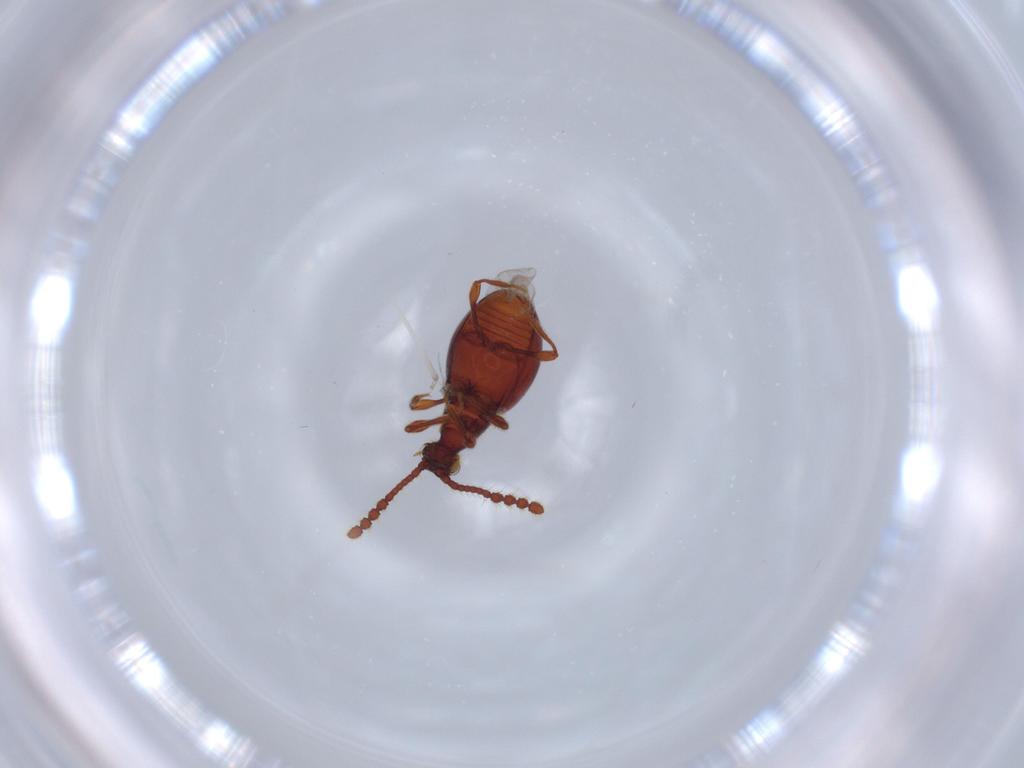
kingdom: Animalia
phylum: Arthropoda
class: Insecta
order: Coleoptera
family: Staphylinidae
